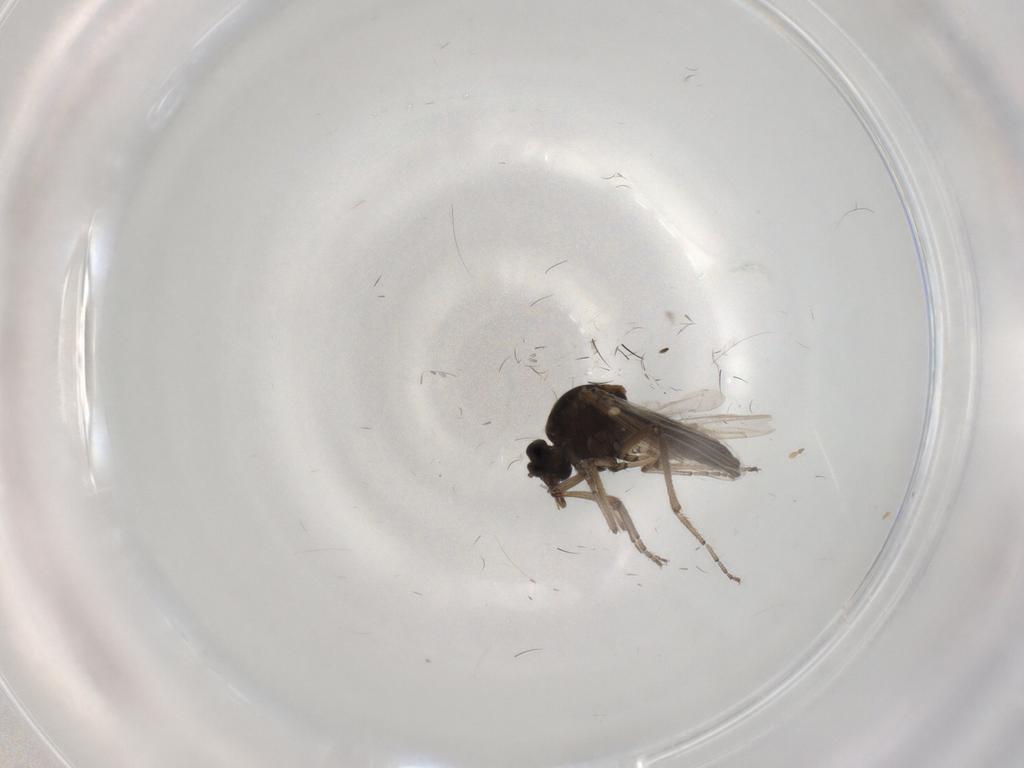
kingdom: Animalia
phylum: Arthropoda
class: Insecta
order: Diptera
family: Ceratopogonidae
